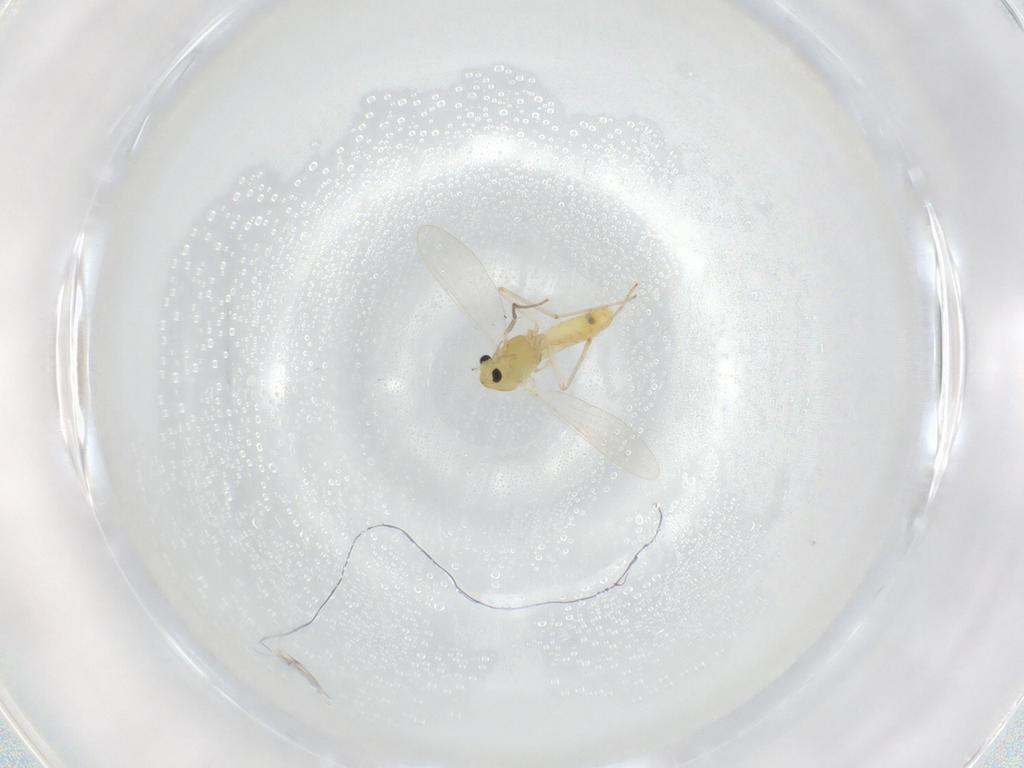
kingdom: Animalia
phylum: Arthropoda
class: Insecta
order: Diptera
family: Chironomidae
